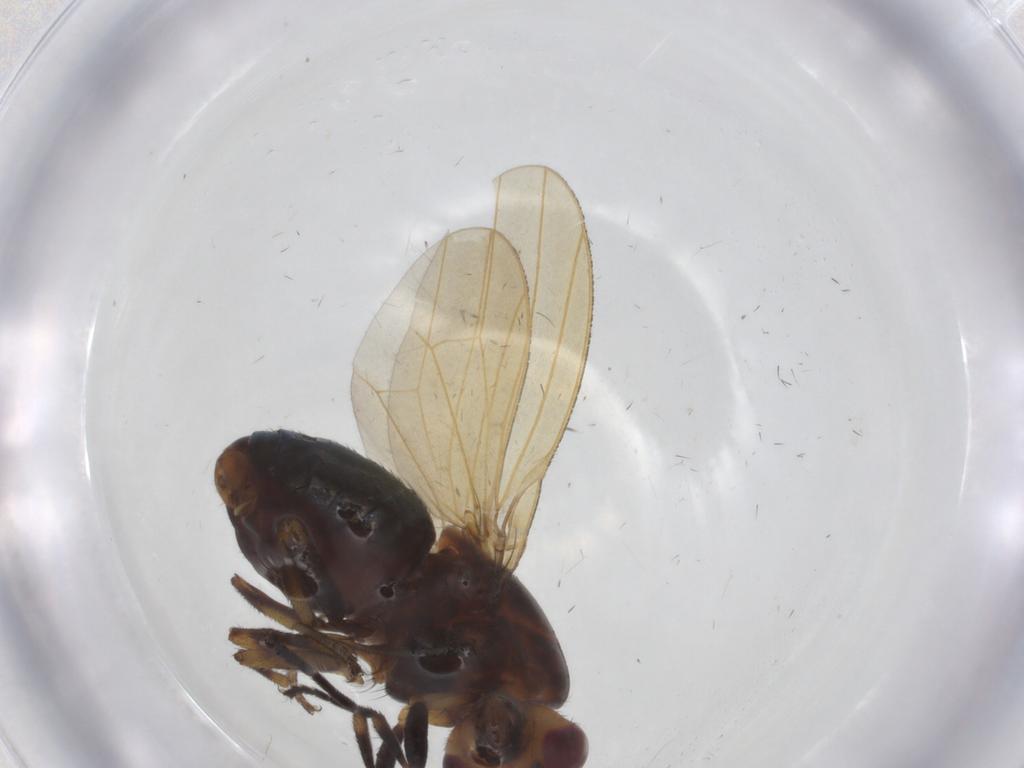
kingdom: Animalia
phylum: Arthropoda
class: Insecta
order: Diptera
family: Lauxaniidae
